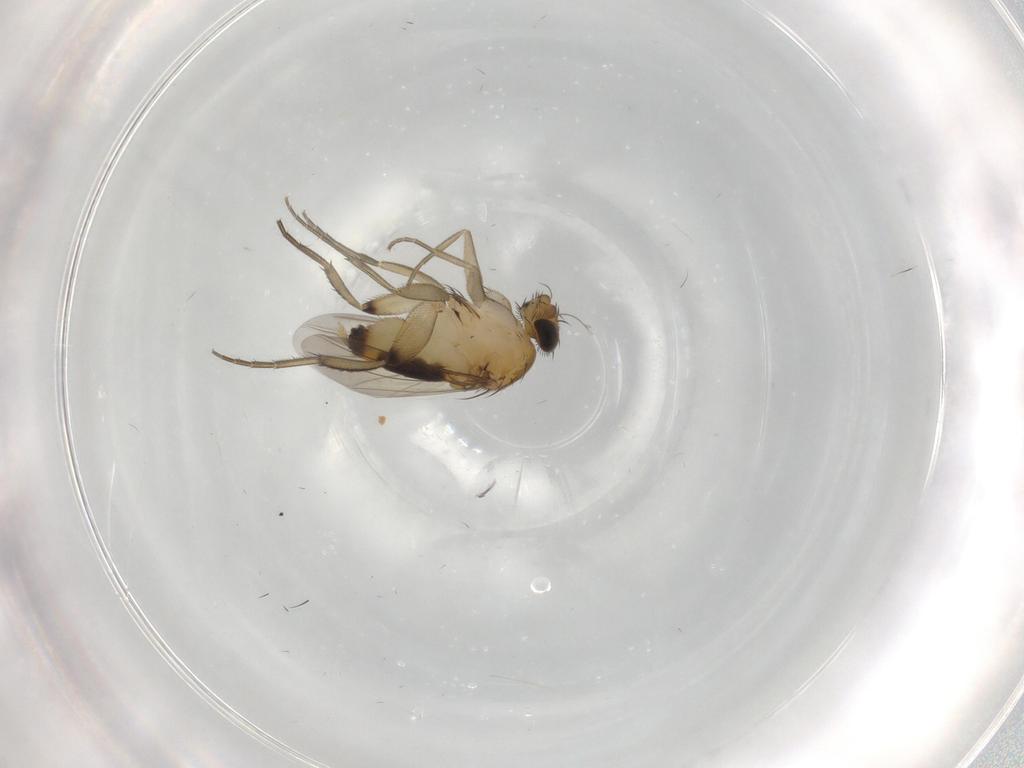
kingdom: Animalia
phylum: Arthropoda
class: Insecta
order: Diptera
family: Phoridae
